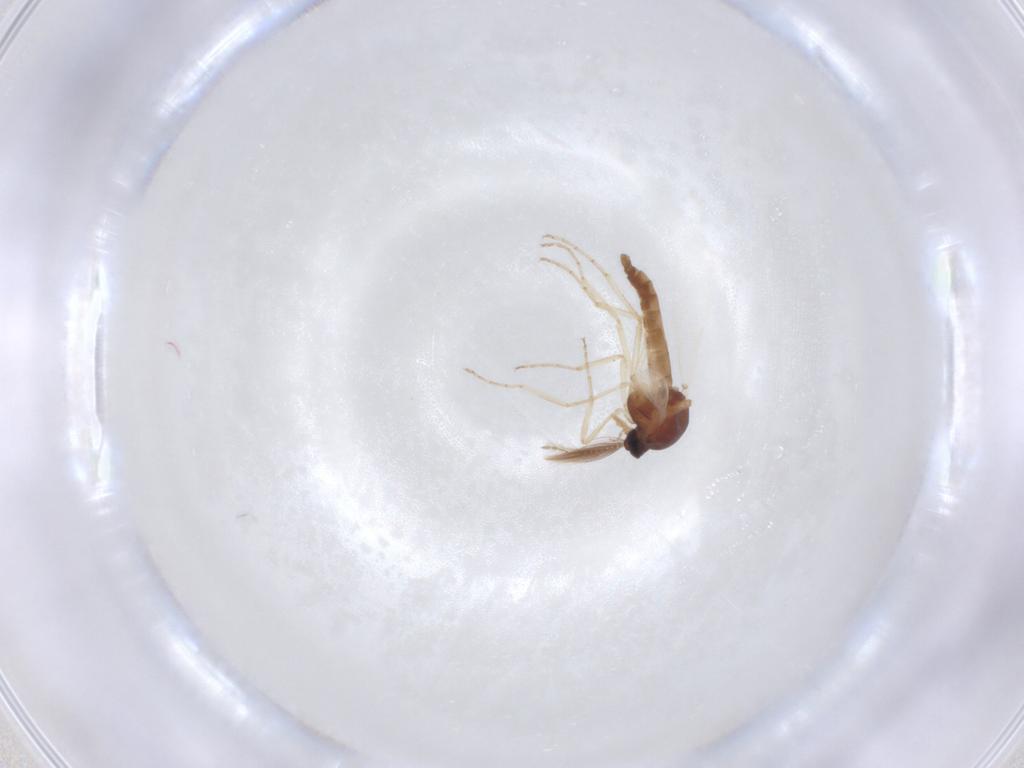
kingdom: Animalia
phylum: Arthropoda
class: Insecta
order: Diptera
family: Ceratopogonidae
